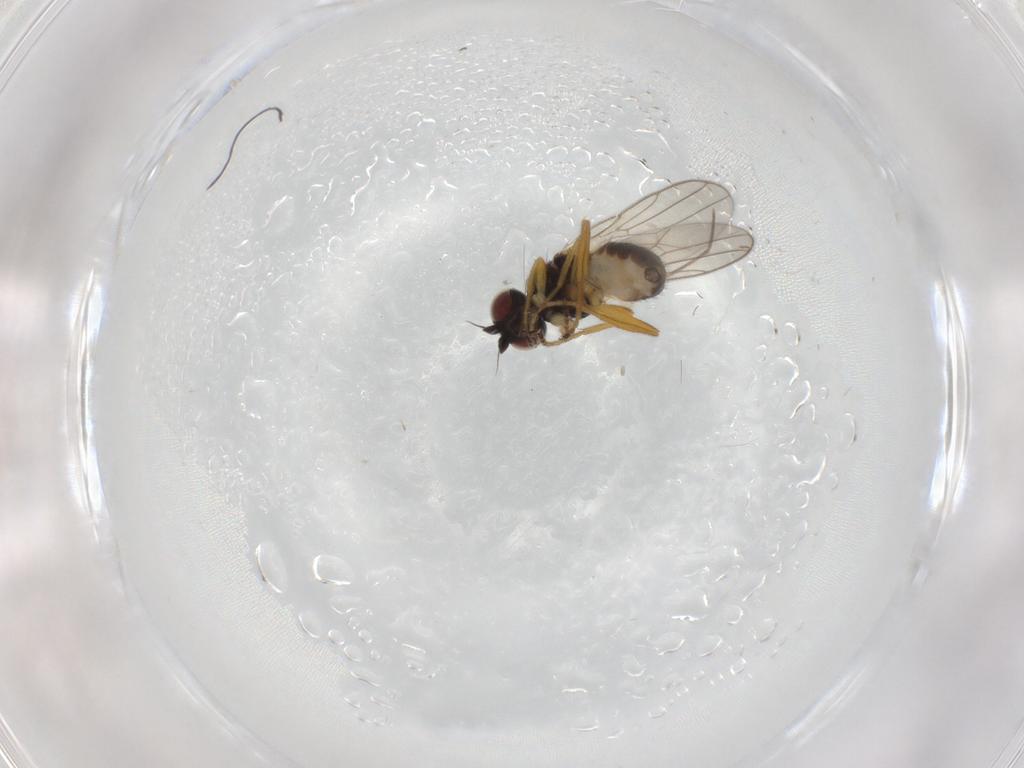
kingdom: Animalia
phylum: Arthropoda
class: Insecta
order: Diptera
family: Chloropidae
